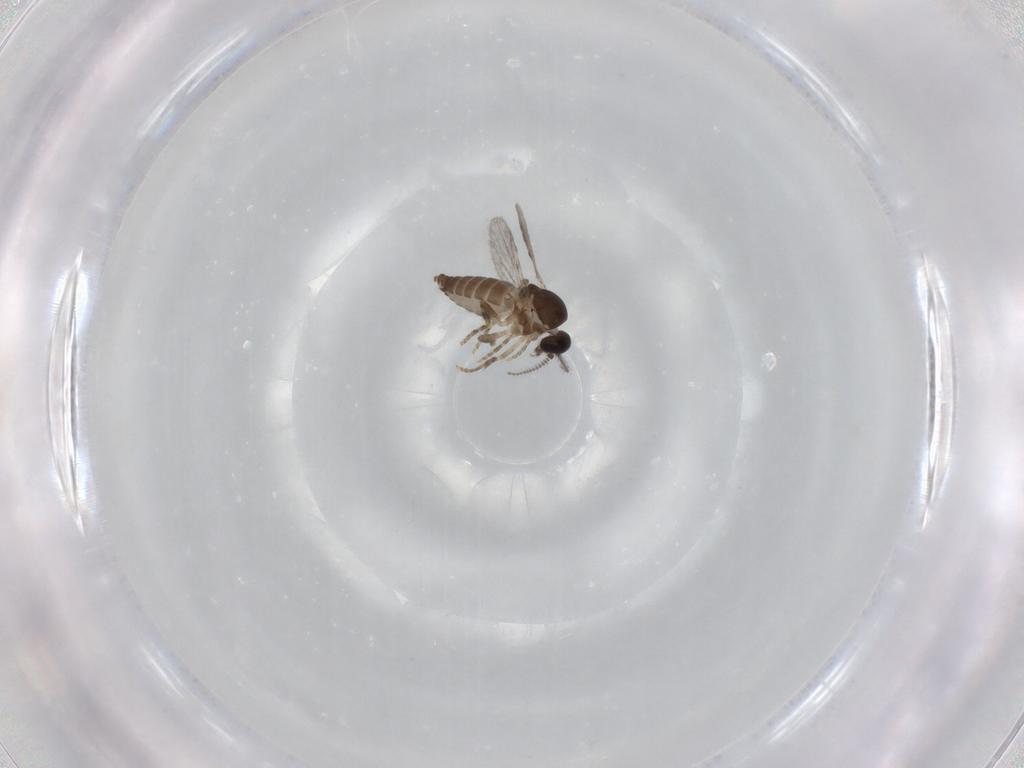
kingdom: Animalia
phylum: Arthropoda
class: Insecta
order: Diptera
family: Ceratopogonidae
